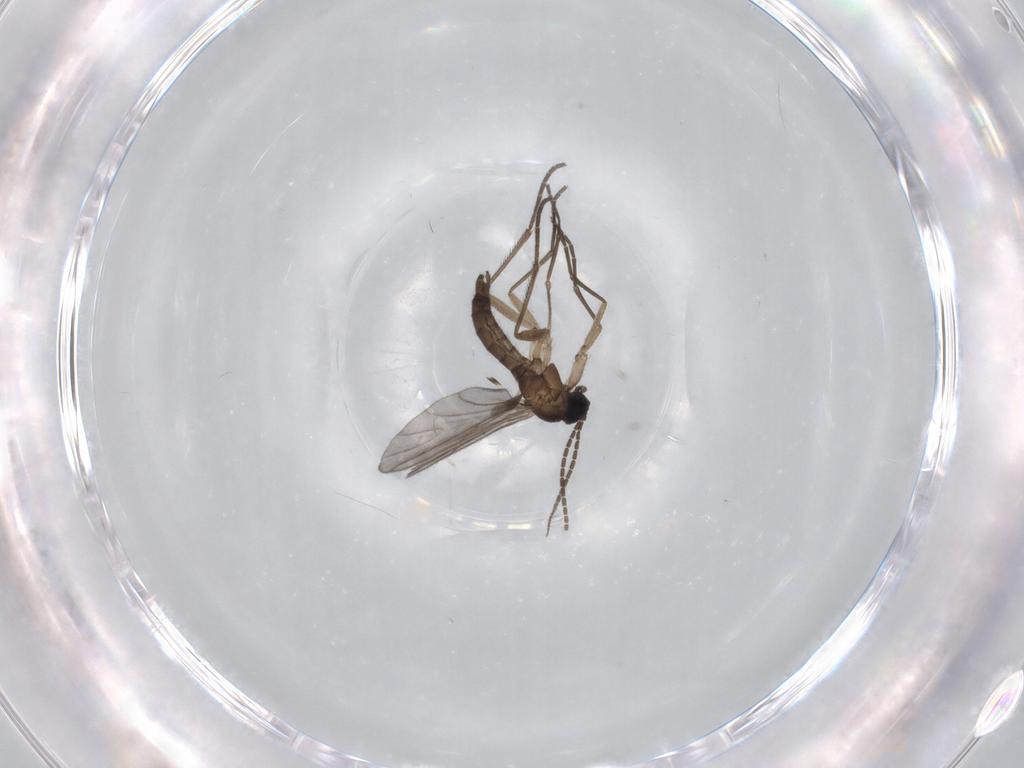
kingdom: Animalia
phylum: Arthropoda
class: Insecta
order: Diptera
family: Sciaridae
